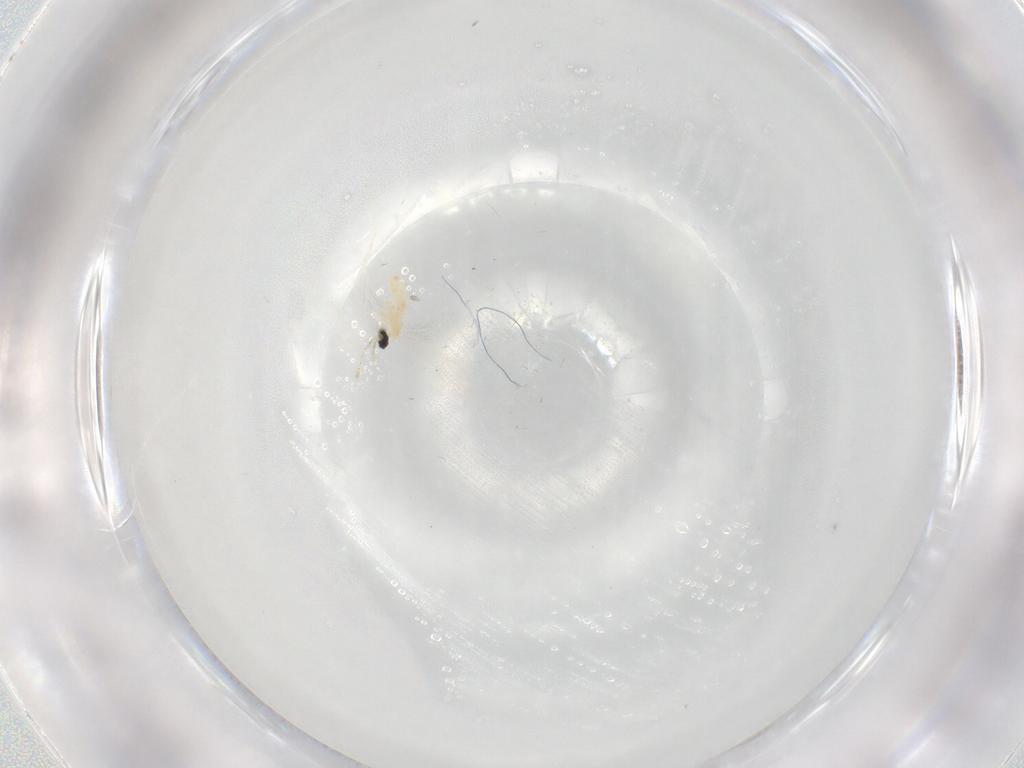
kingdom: Animalia
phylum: Arthropoda
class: Insecta
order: Diptera
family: Cecidomyiidae
